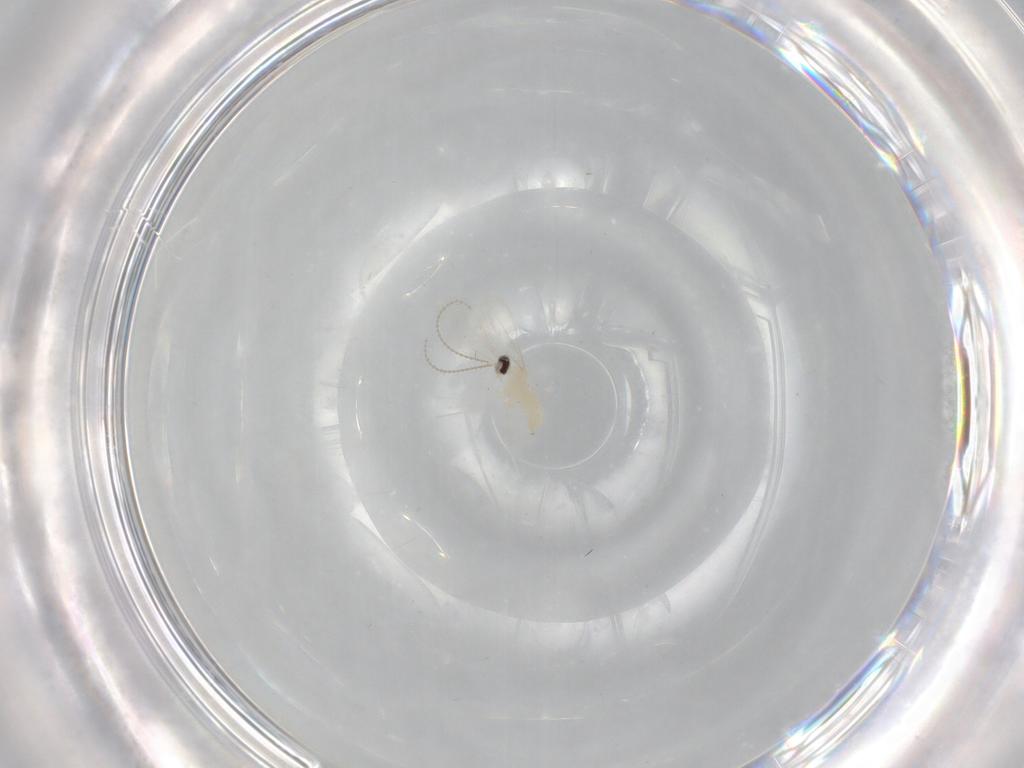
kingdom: Animalia
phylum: Arthropoda
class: Insecta
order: Diptera
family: Cecidomyiidae
